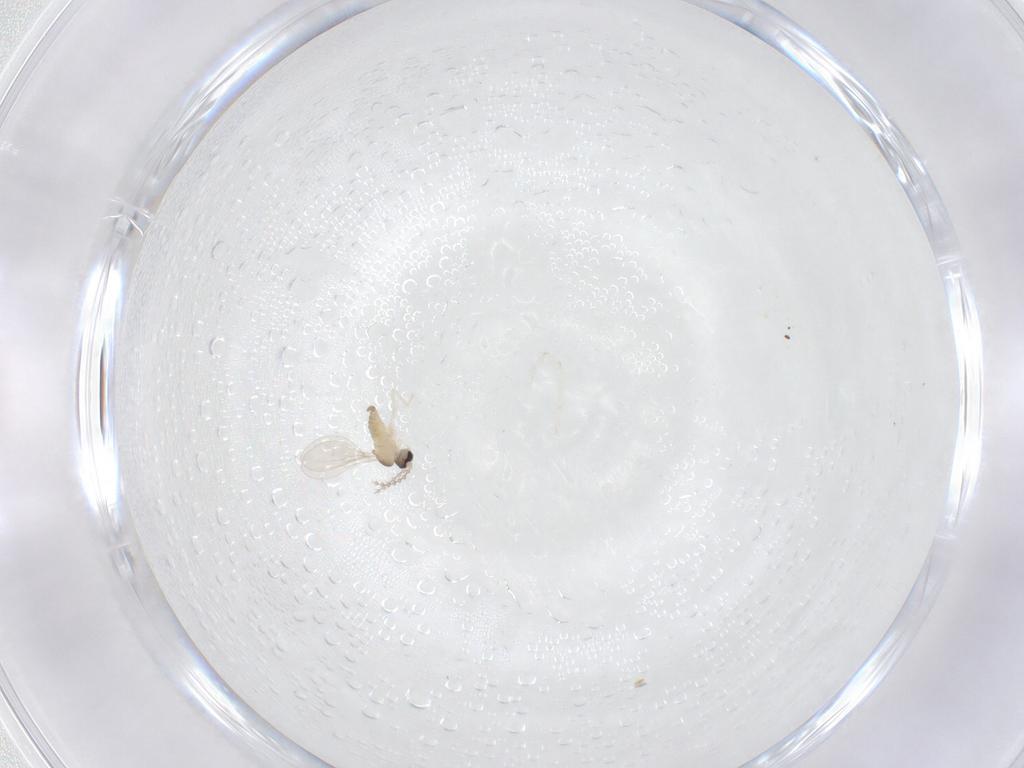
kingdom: Animalia
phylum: Arthropoda
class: Insecta
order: Diptera
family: Cecidomyiidae
